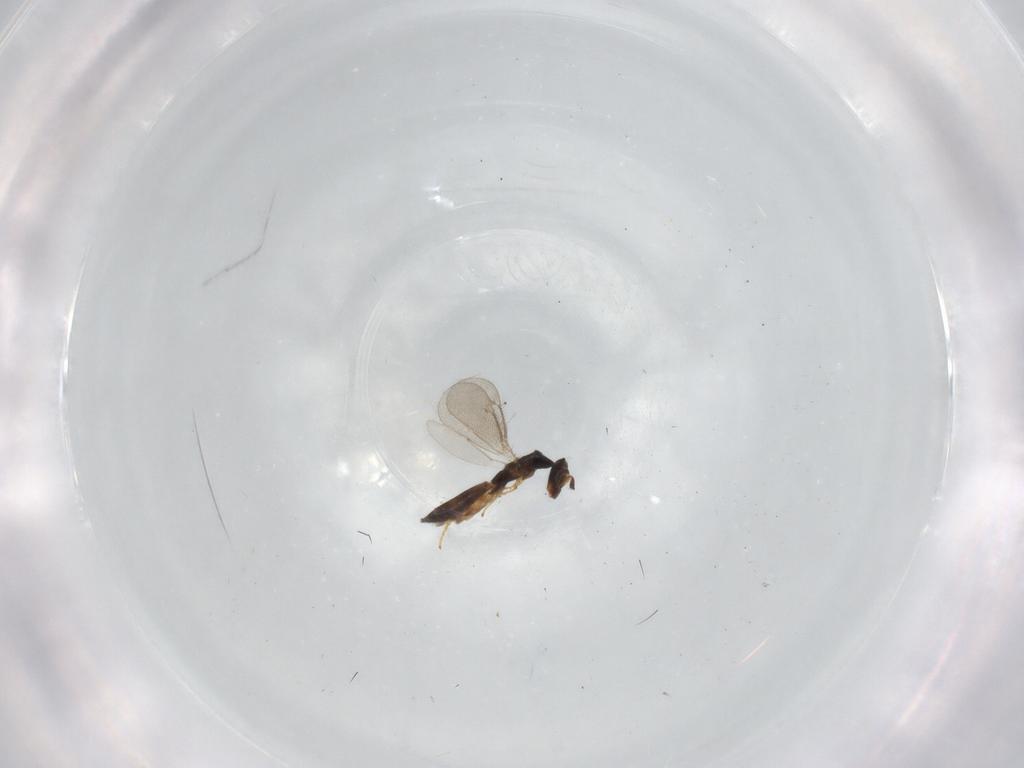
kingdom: Animalia
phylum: Arthropoda
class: Insecta
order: Hymenoptera
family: Eulophidae
